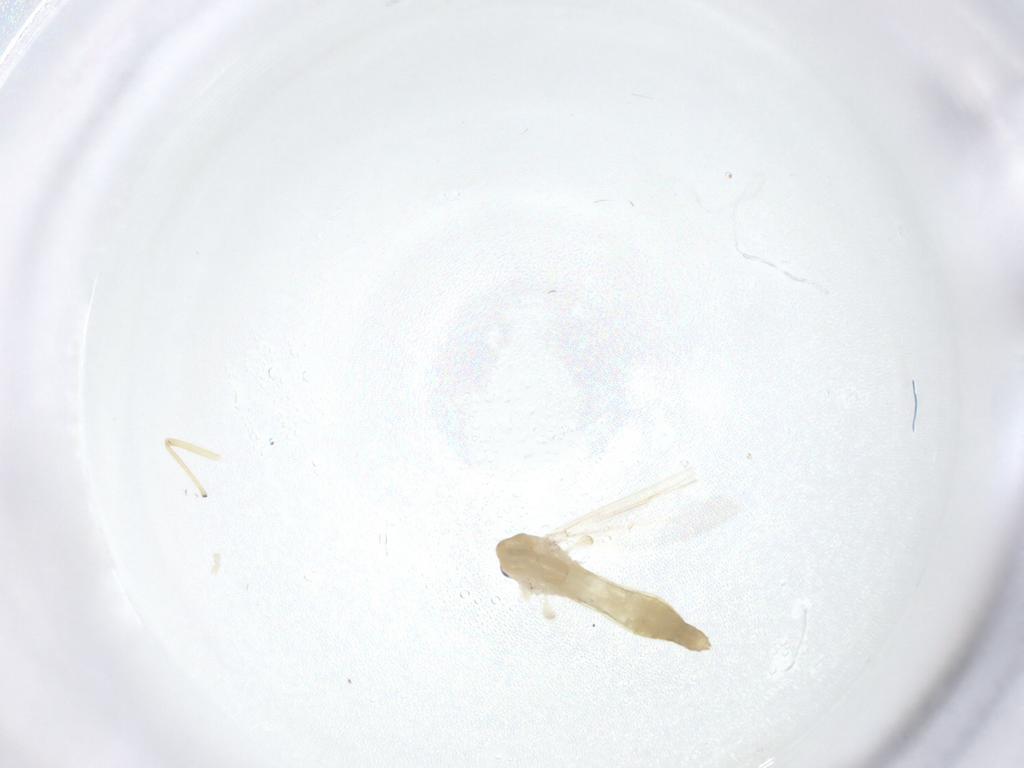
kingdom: Animalia
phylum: Arthropoda
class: Insecta
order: Diptera
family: Chironomidae
